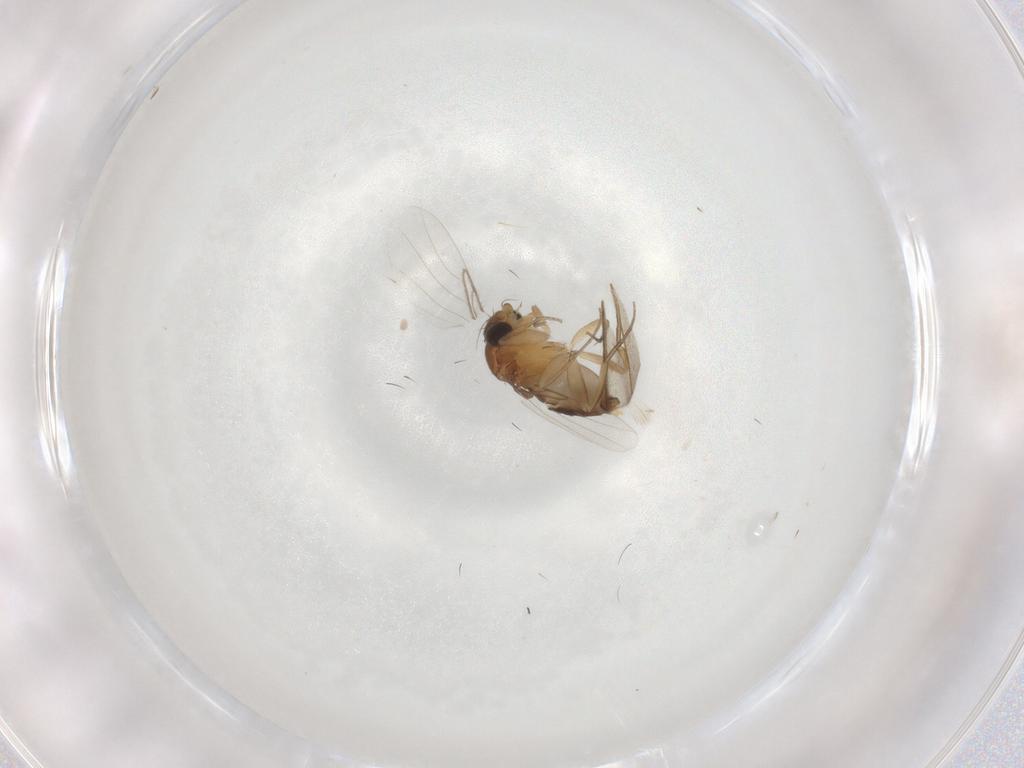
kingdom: Animalia
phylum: Arthropoda
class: Insecta
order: Diptera
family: Phoridae
